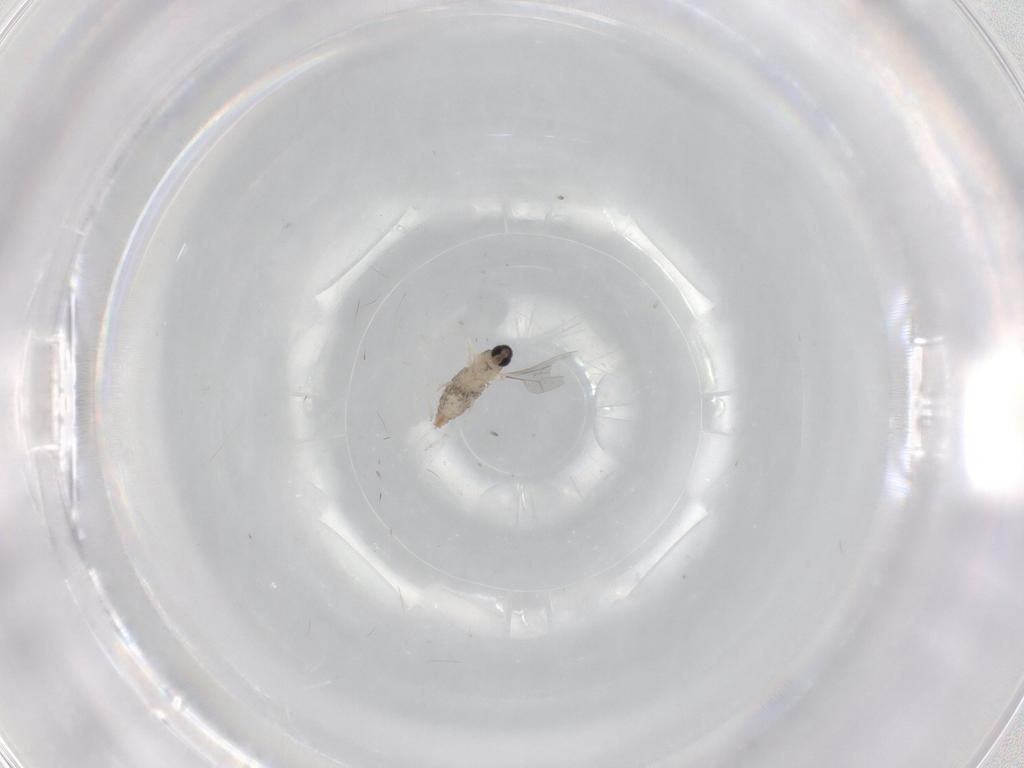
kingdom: Animalia
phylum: Arthropoda
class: Insecta
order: Diptera
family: Cecidomyiidae
